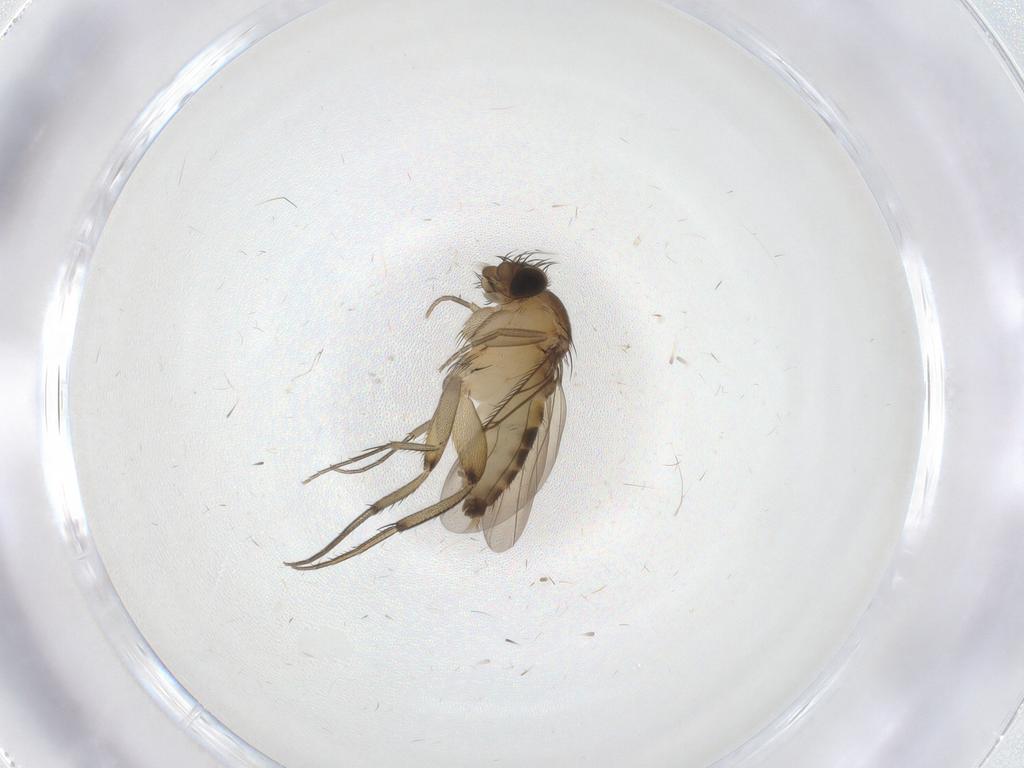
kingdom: Animalia
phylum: Arthropoda
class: Insecta
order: Diptera
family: Phoridae
